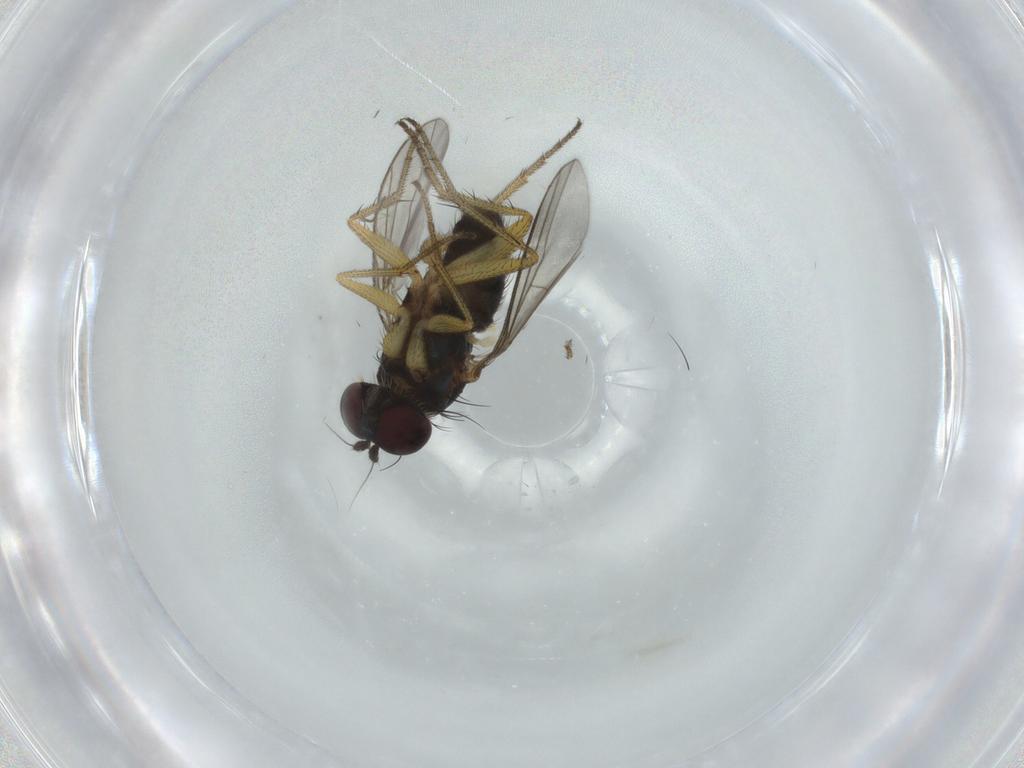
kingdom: Animalia
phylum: Arthropoda
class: Insecta
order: Diptera
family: Dolichopodidae
